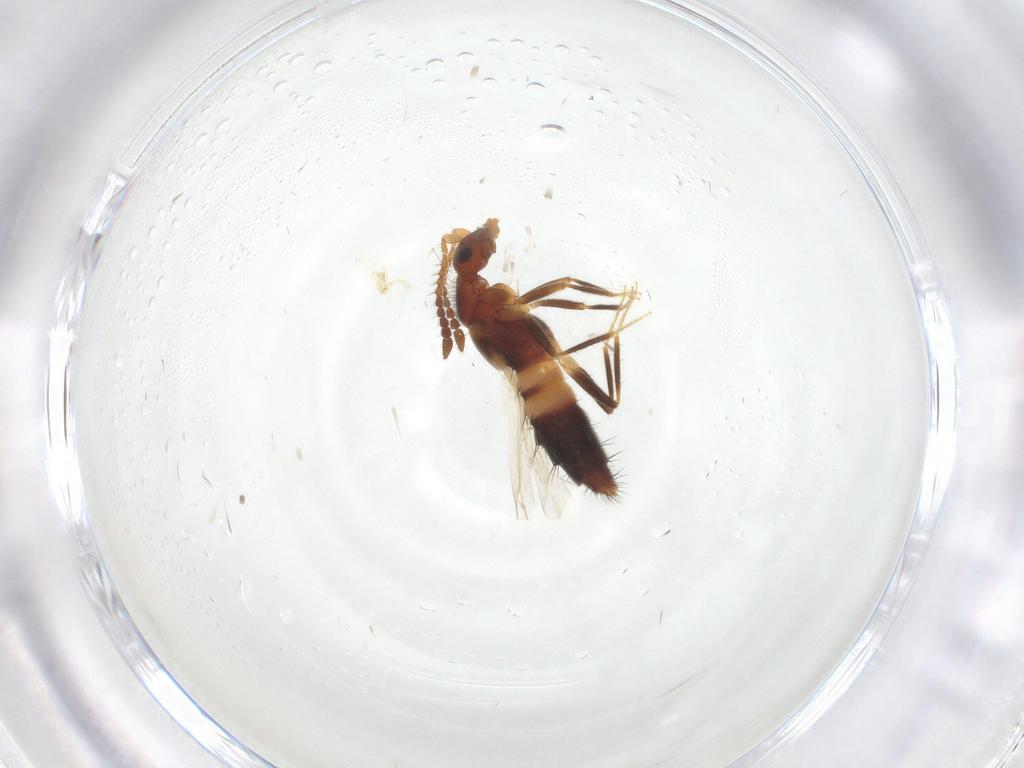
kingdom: Animalia
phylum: Arthropoda
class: Insecta
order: Coleoptera
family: Staphylinidae
